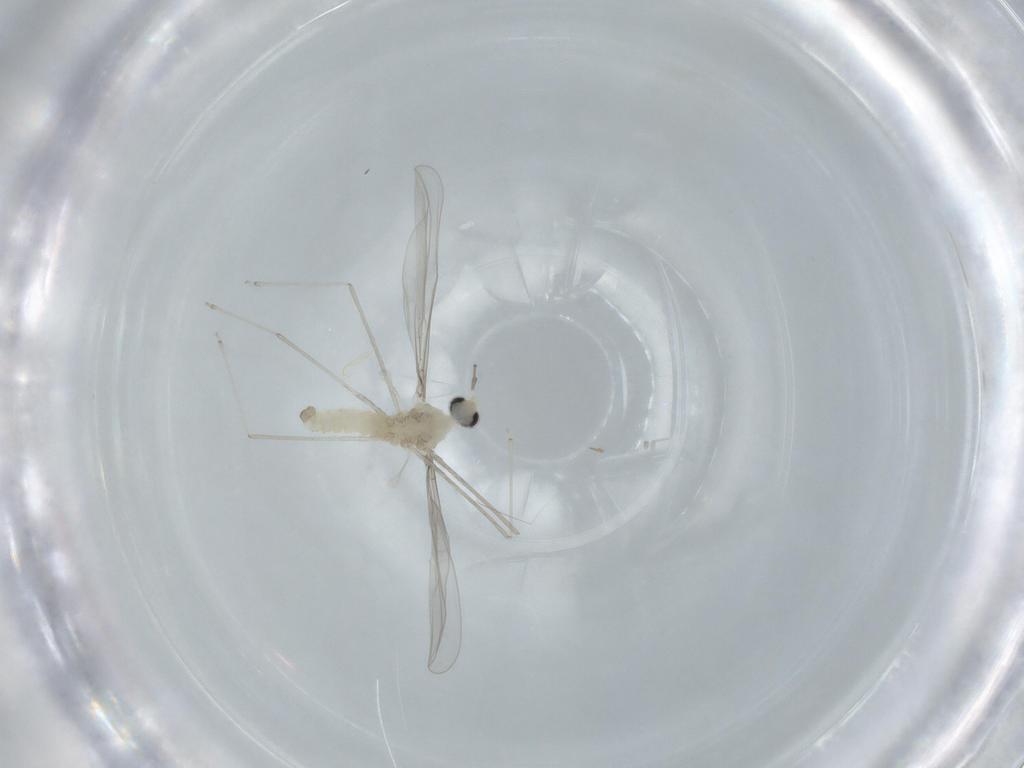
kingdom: Animalia
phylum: Arthropoda
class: Insecta
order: Diptera
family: Cecidomyiidae
